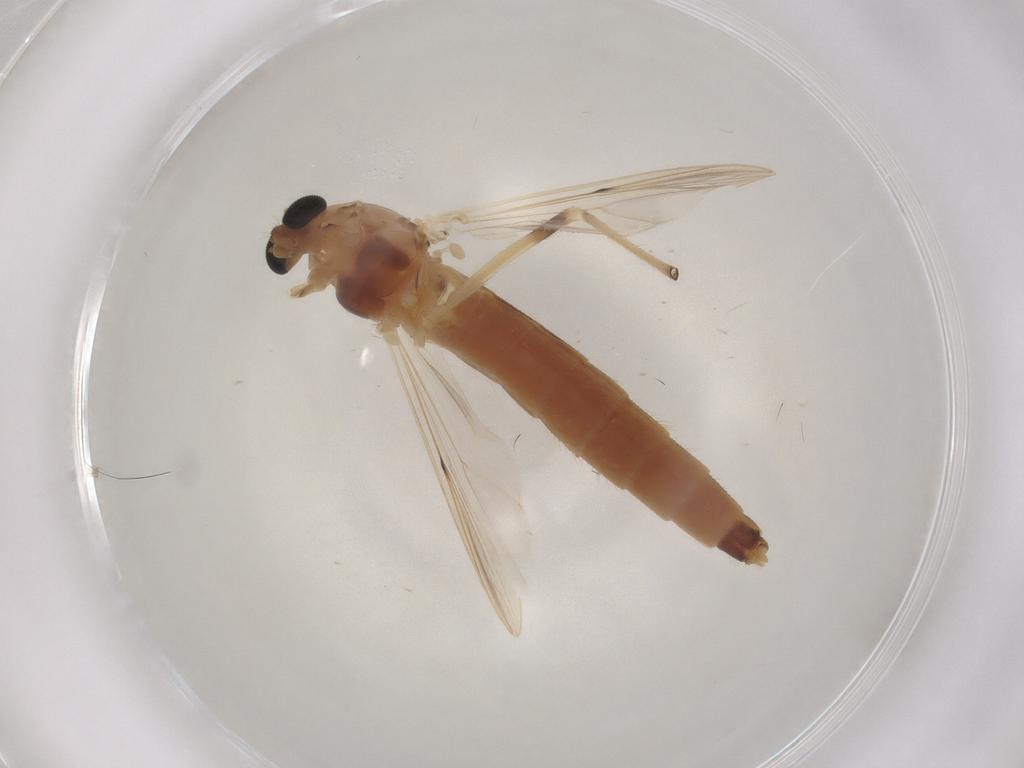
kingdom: Animalia
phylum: Arthropoda
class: Insecta
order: Diptera
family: Chironomidae
